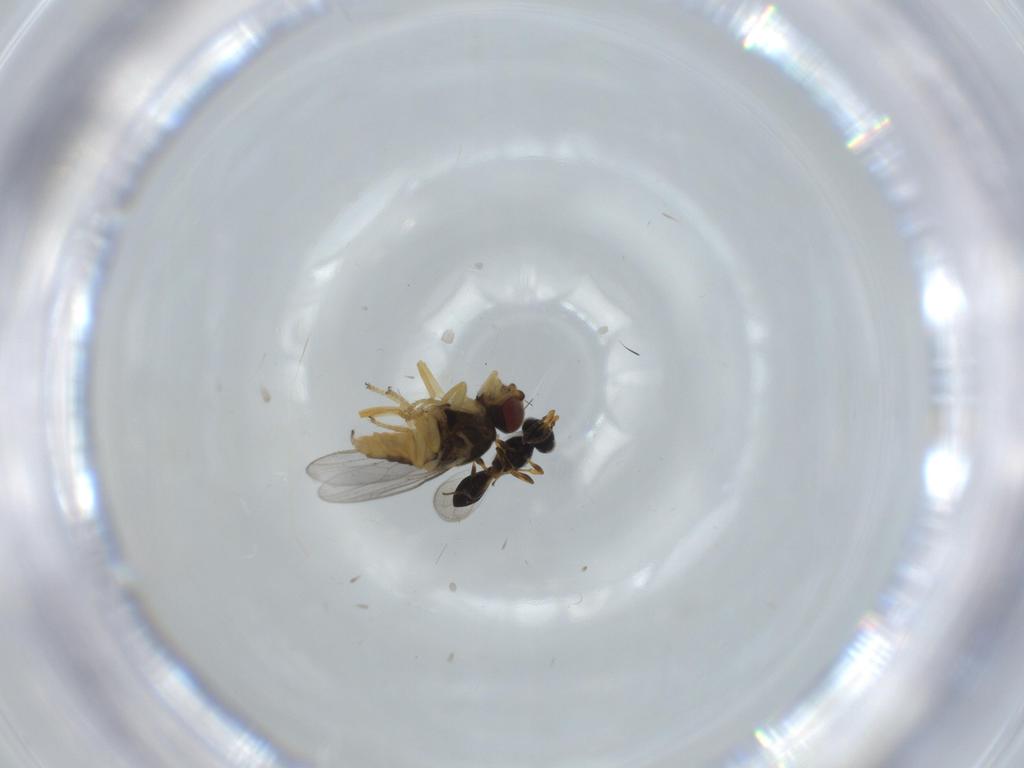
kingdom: Animalia
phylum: Arthropoda
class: Insecta
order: Diptera
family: Chloropidae
